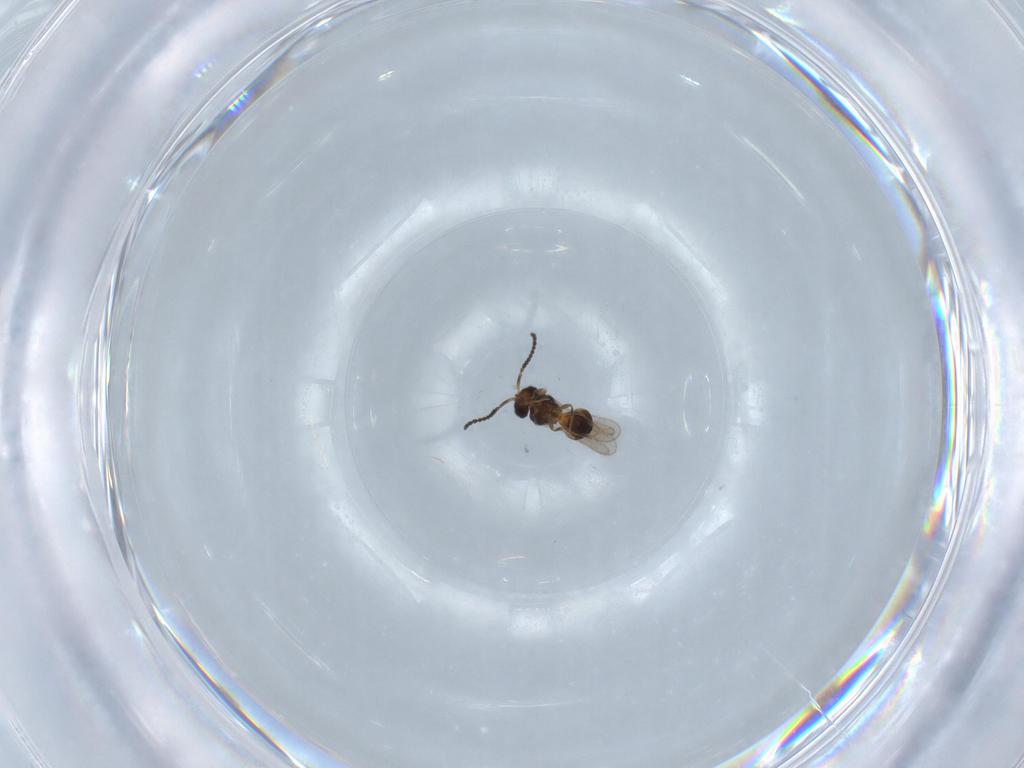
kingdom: Animalia
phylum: Arthropoda
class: Insecta
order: Hymenoptera
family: Scelionidae
